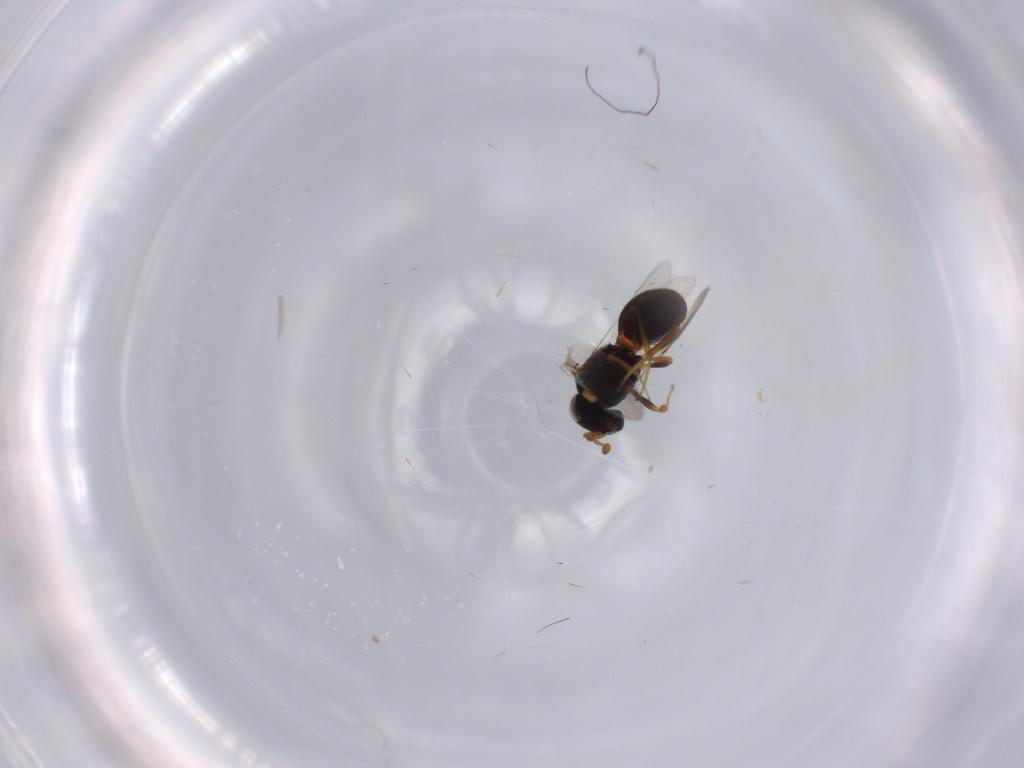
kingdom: Animalia
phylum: Arthropoda
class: Insecta
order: Hymenoptera
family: Scelionidae
